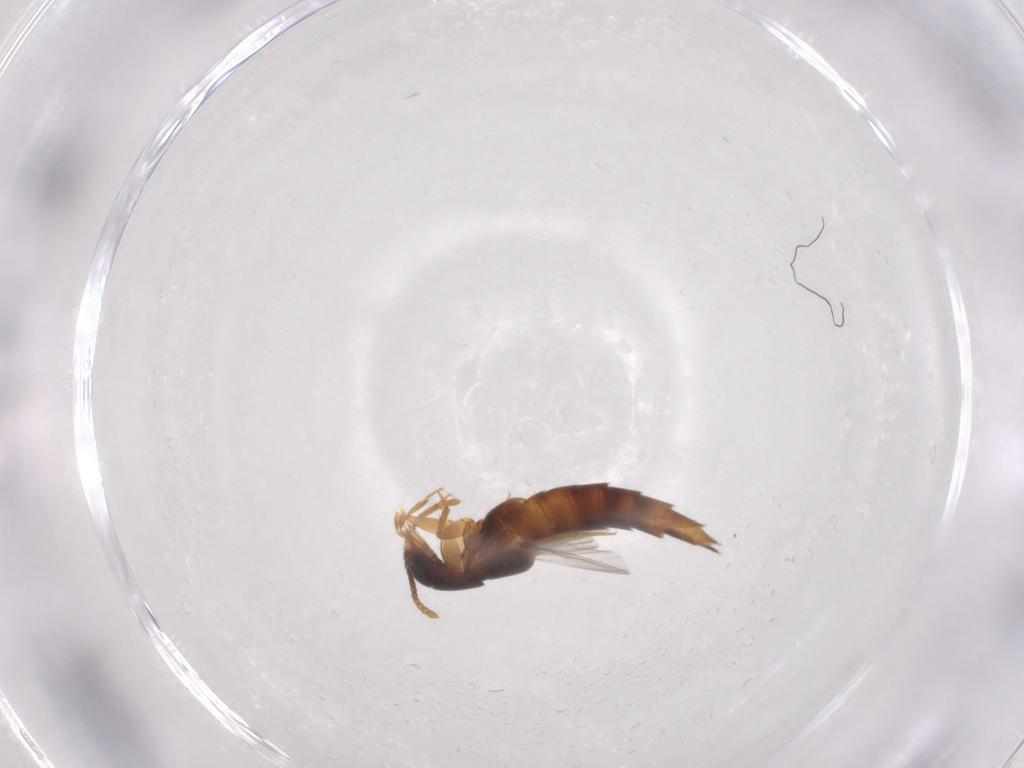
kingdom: Animalia
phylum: Arthropoda
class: Insecta
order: Coleoptera
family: Staphylinidae
